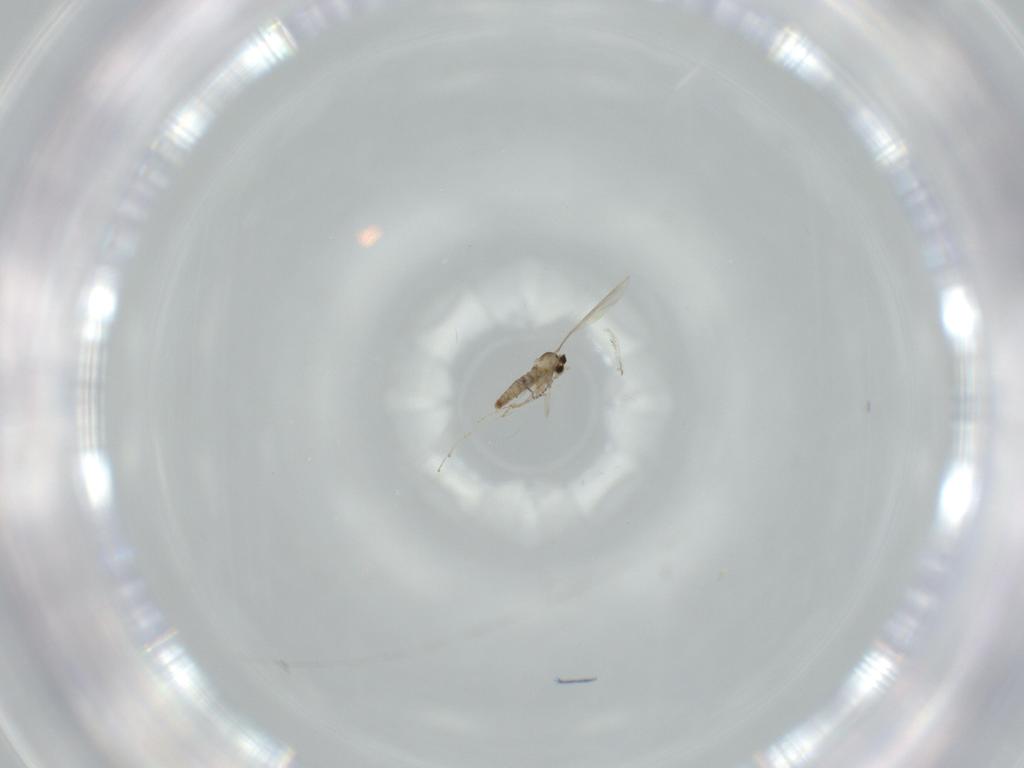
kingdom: Animalia
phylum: Arthropoda
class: Insecta
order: Diptera
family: Cecidomyiidae
